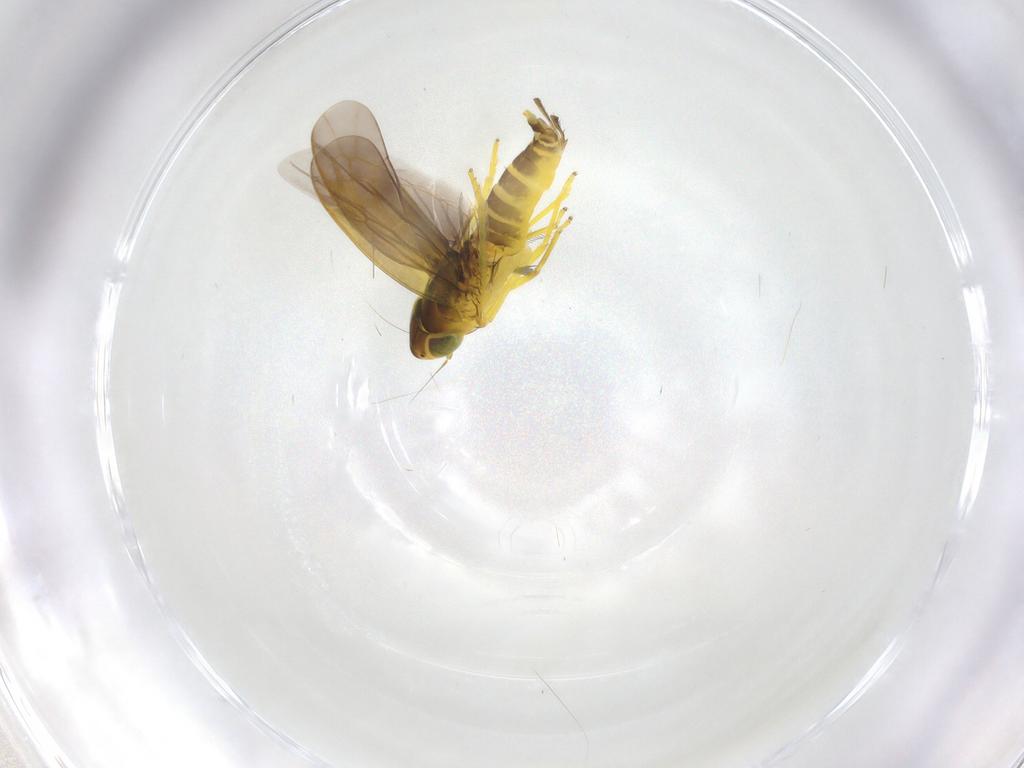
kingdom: Animalia
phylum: Arthropoda
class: Insecta
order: Hemiptera
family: Cicadellidae
